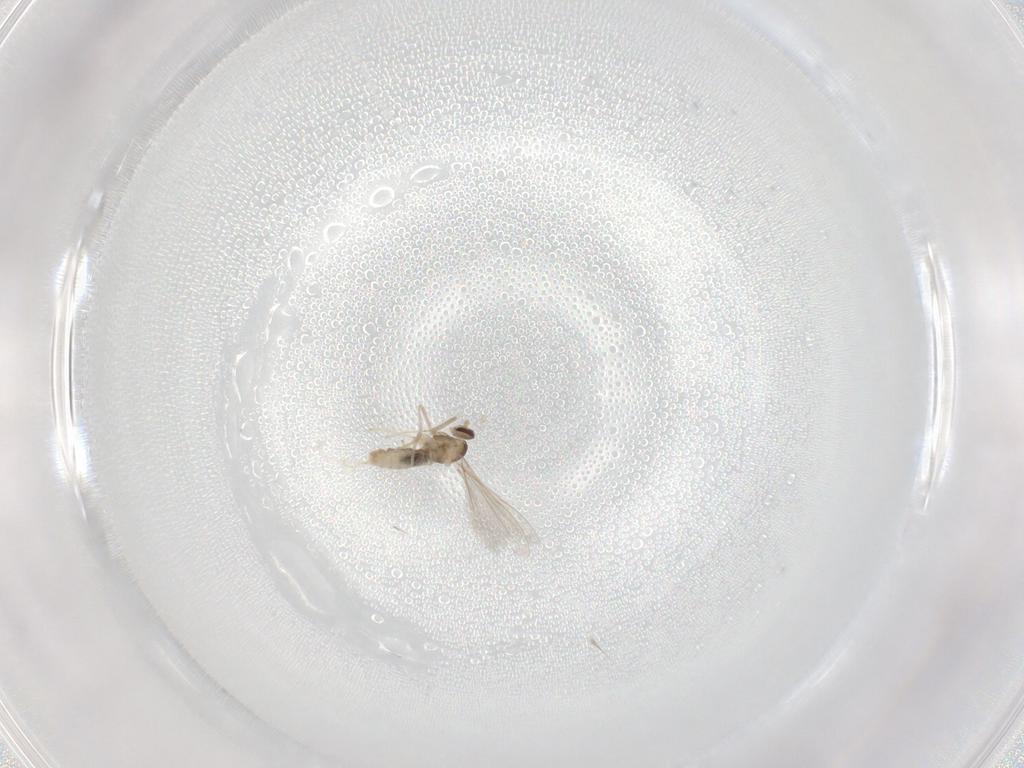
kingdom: Animalia
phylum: Arthropoda
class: Insecta
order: Diptera
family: Cecidomyiidae
